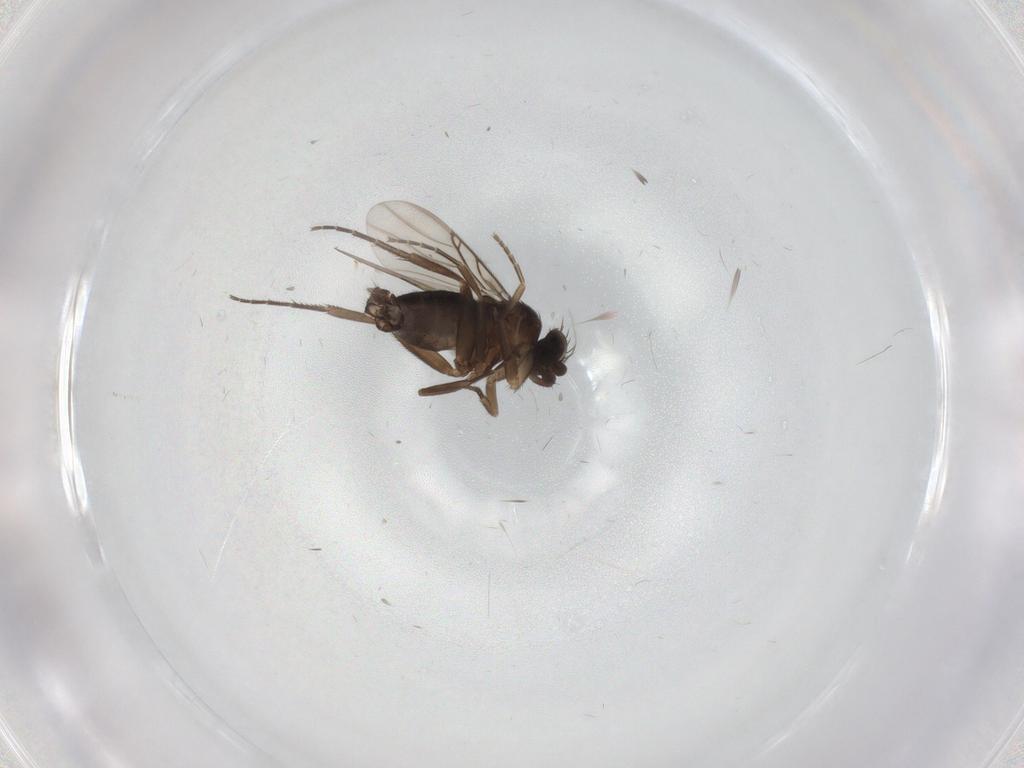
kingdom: Animalia
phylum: Arthropoda
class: Insecta
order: Diptera
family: Phoridae
